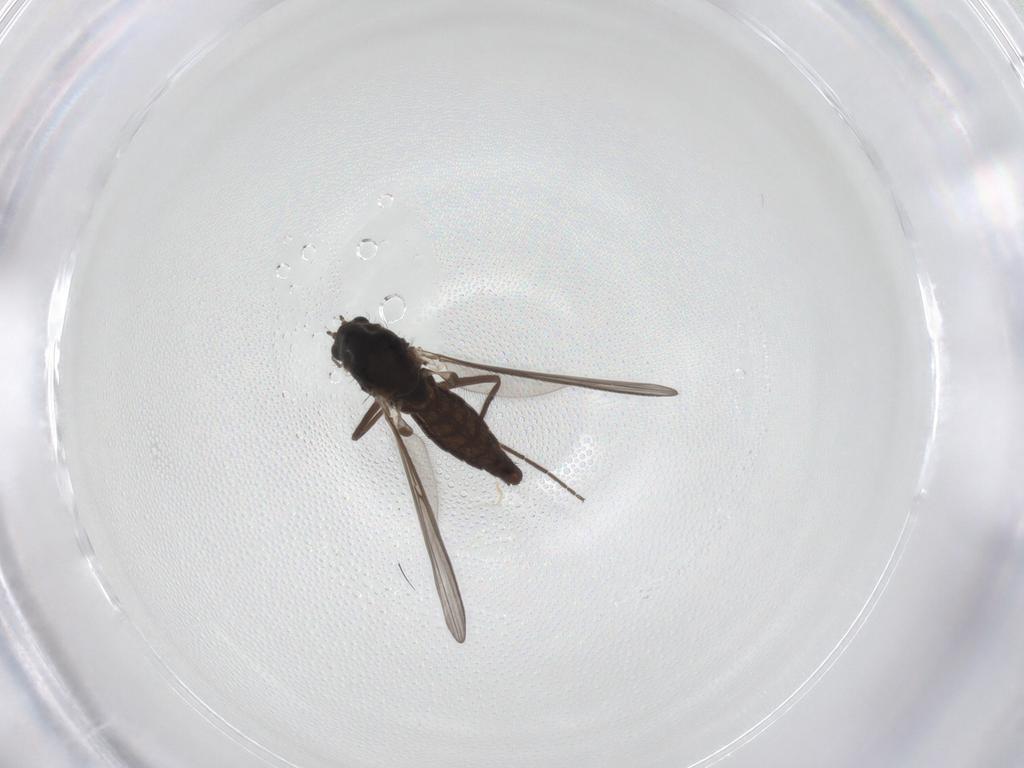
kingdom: Animalia
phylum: Arthropoda
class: Insecta
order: Diptera
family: Chironomidae
